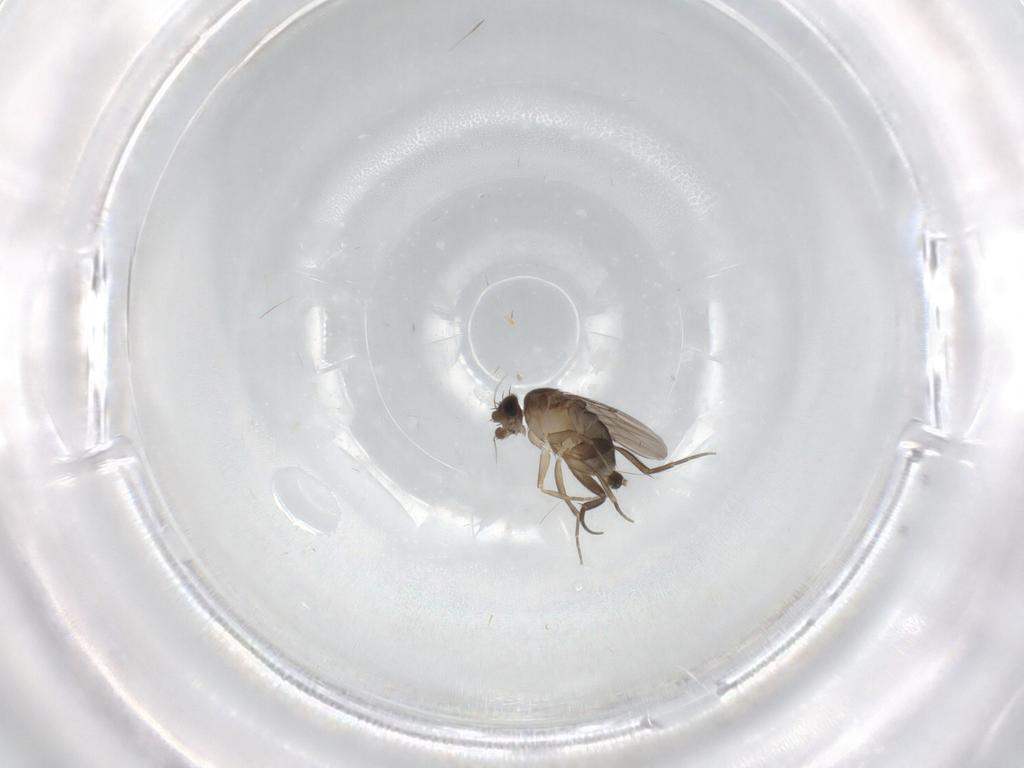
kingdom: Animalia
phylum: Arthropoda
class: Insecta
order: Diptera
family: Phoridae
